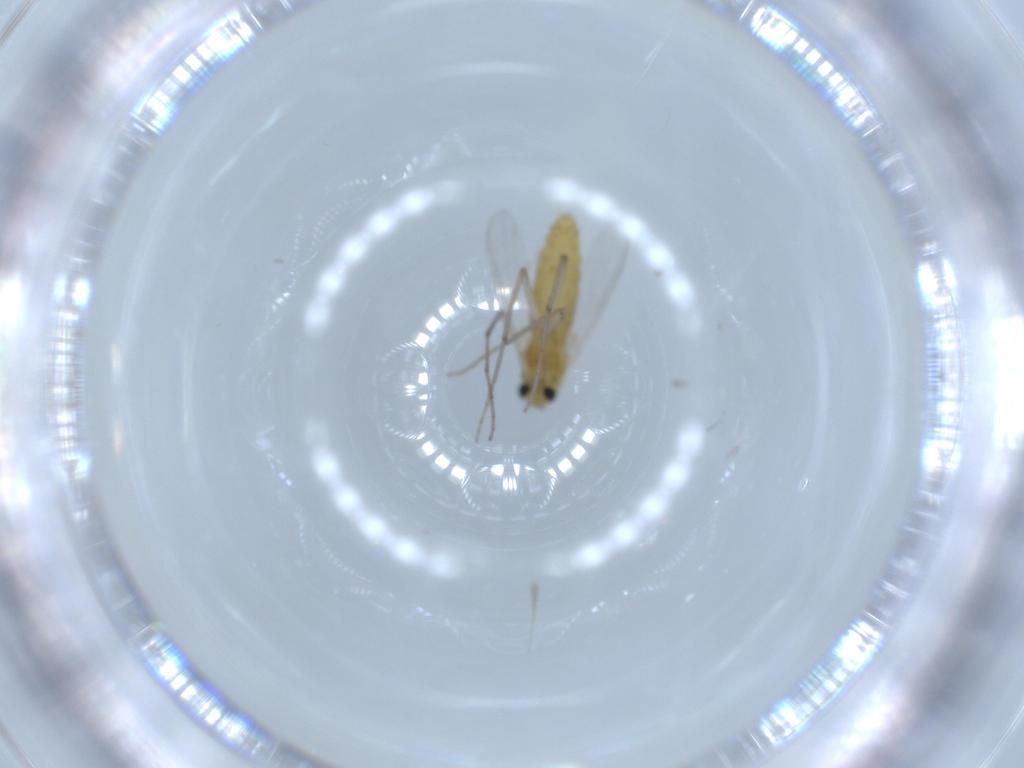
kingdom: Animalia
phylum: Arthropoda
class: Insecta
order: Diptera
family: Chironomidae
